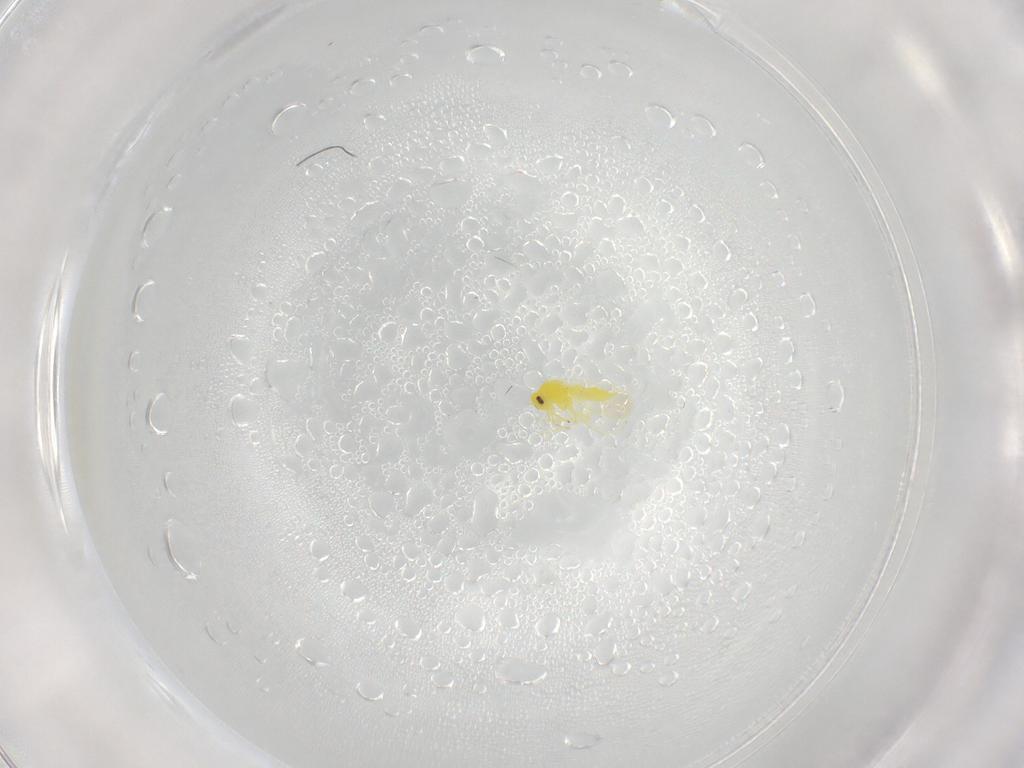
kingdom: Animalia
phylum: Arthropoda
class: Insecta
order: Hemiptera
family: Aleyrodidae
